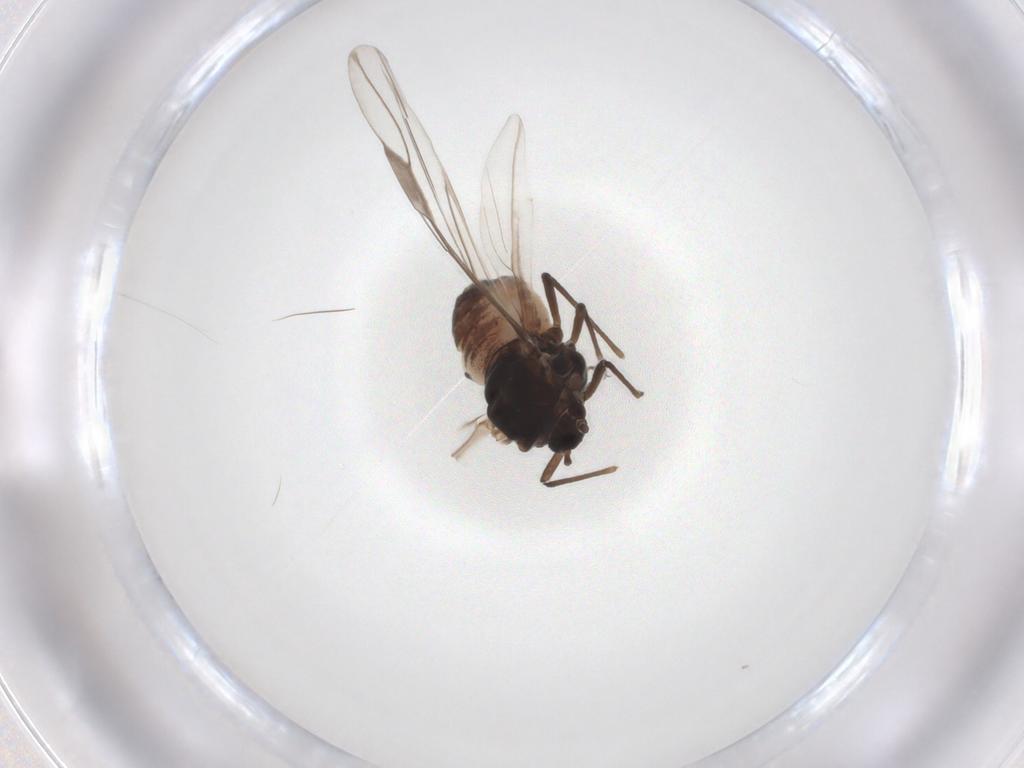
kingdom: Animalia
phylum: Arthropoda
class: Insecta
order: Hemiptera
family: Aphididae
